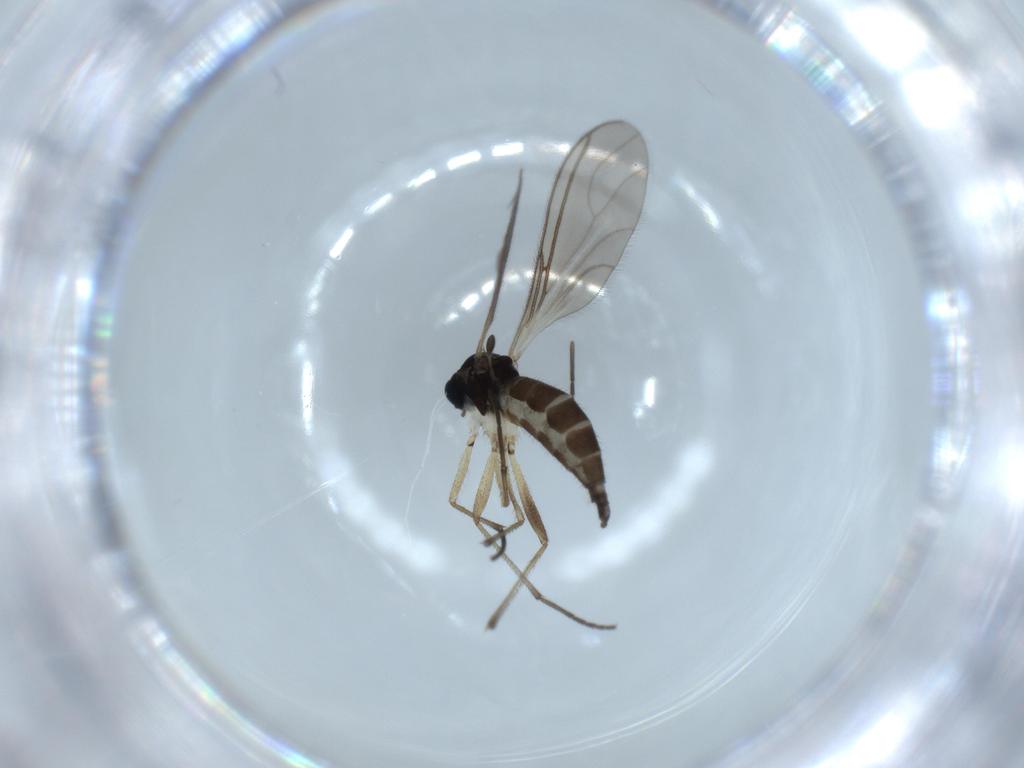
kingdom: Animalia
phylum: Arthropoda
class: Insecta
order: Diptera
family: Sciaridae
